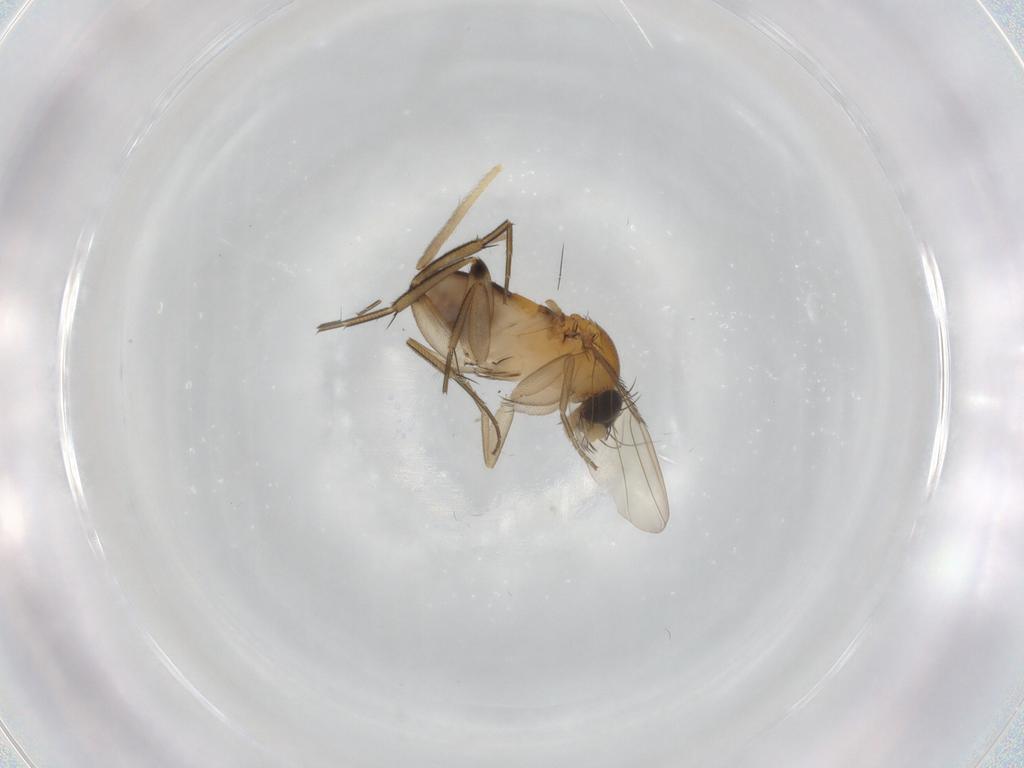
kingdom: Animalia
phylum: Arthropoda
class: Insecta
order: Diptera
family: Phoridae
